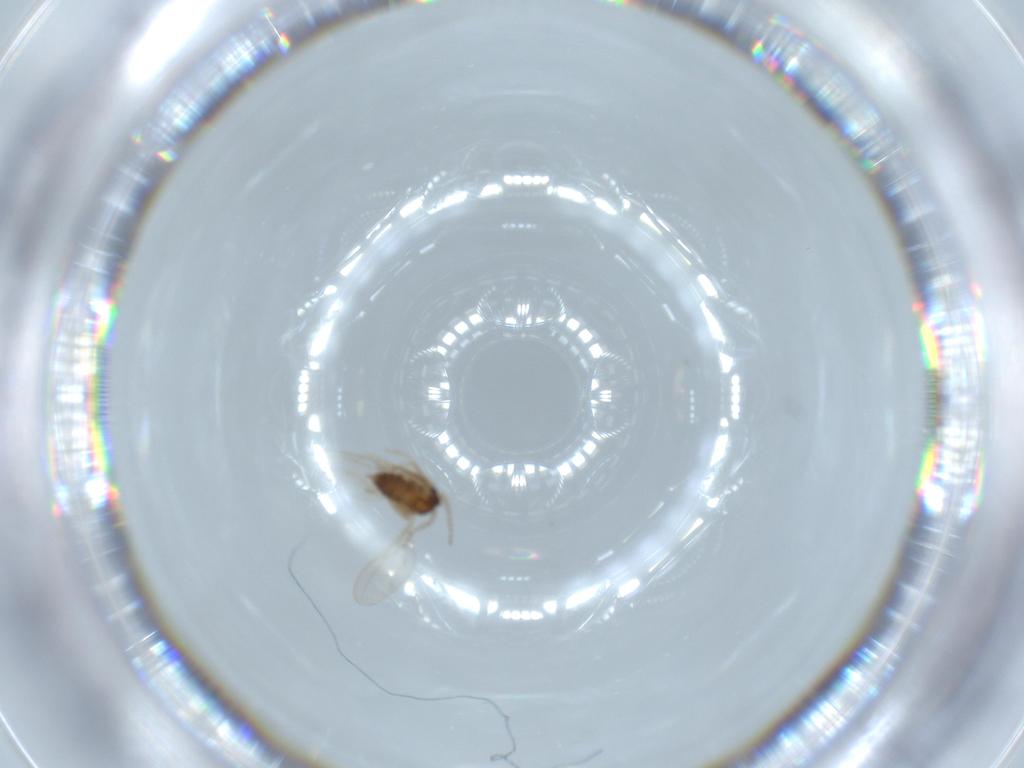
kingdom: Animalia
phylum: Arthropoda
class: Insecta
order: Diptera
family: Cecidomyiidae
